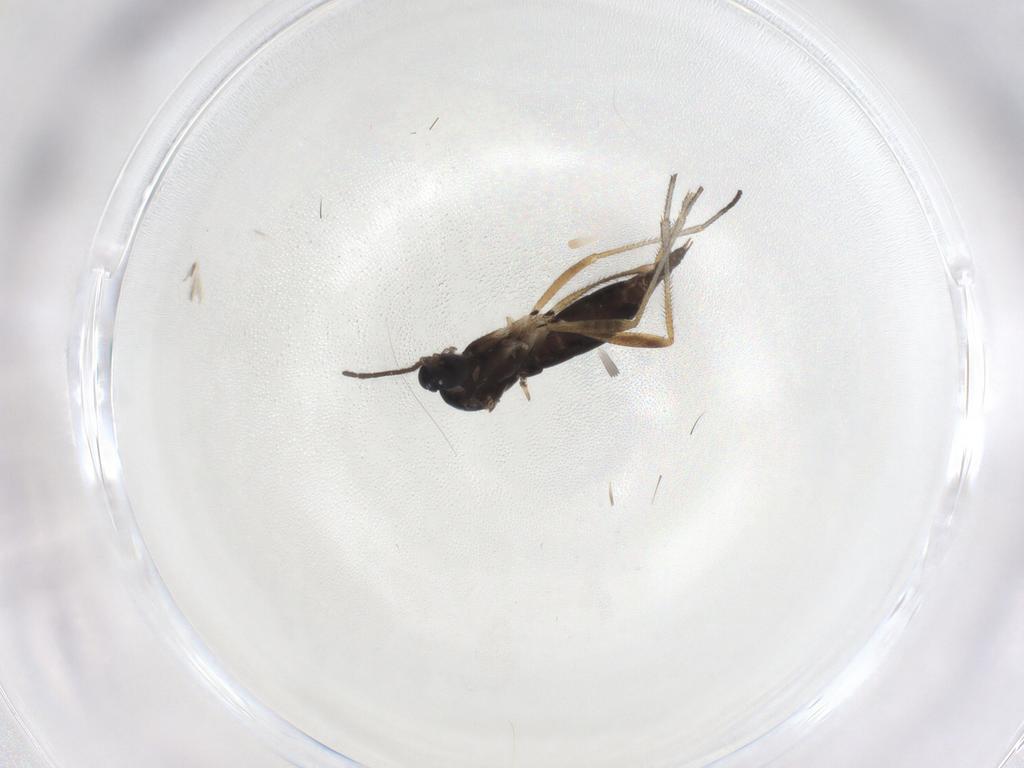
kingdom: Animalia
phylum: Arthropoda
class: Insecta
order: Diptera
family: Sciaridae
